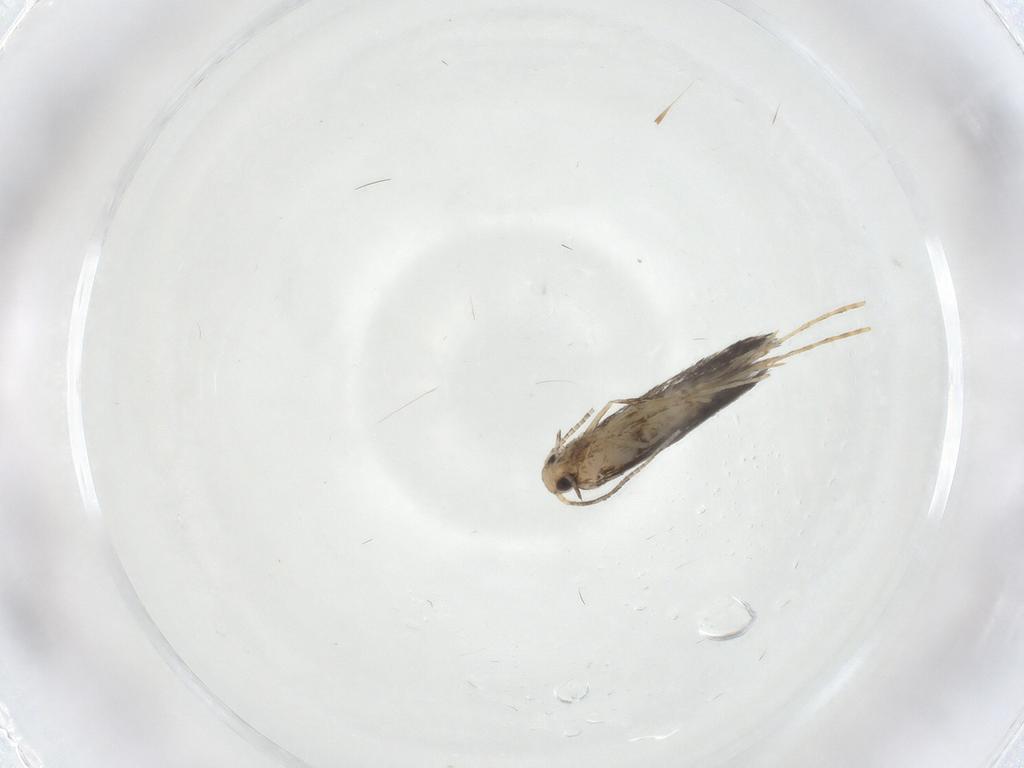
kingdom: Animalia
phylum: Arthropoda
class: Insecta
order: Lepidoptera
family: Gracillariidae
